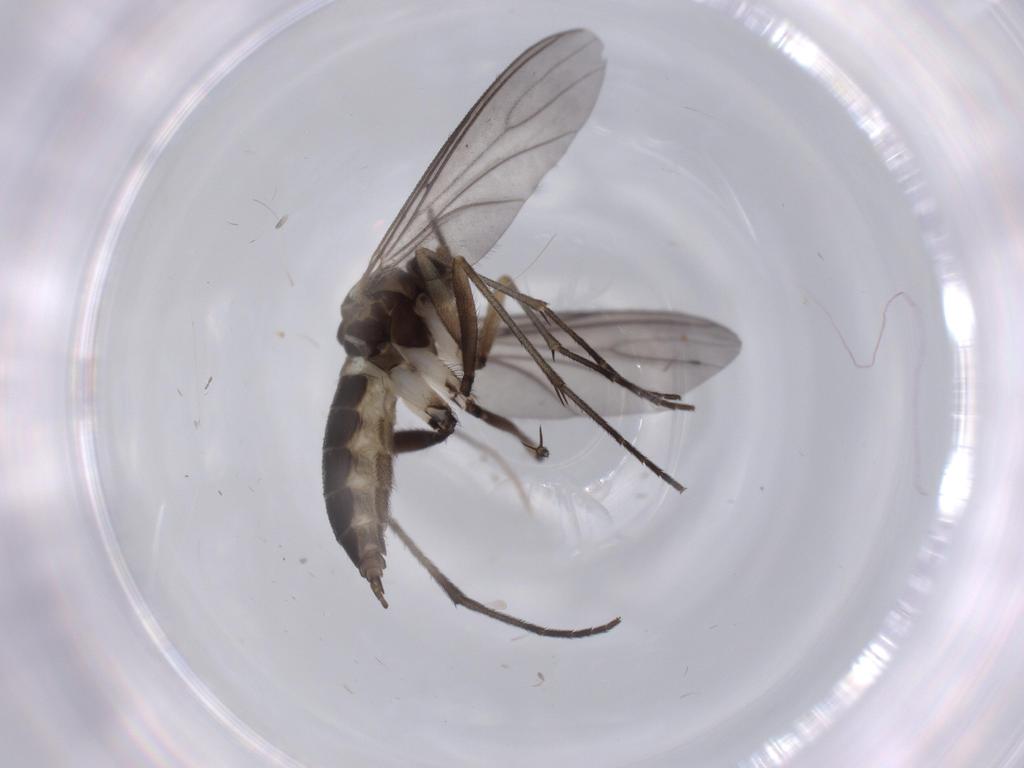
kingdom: Animalia
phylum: Arthropoda
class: Insecta
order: Diptera
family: Sciaridae
